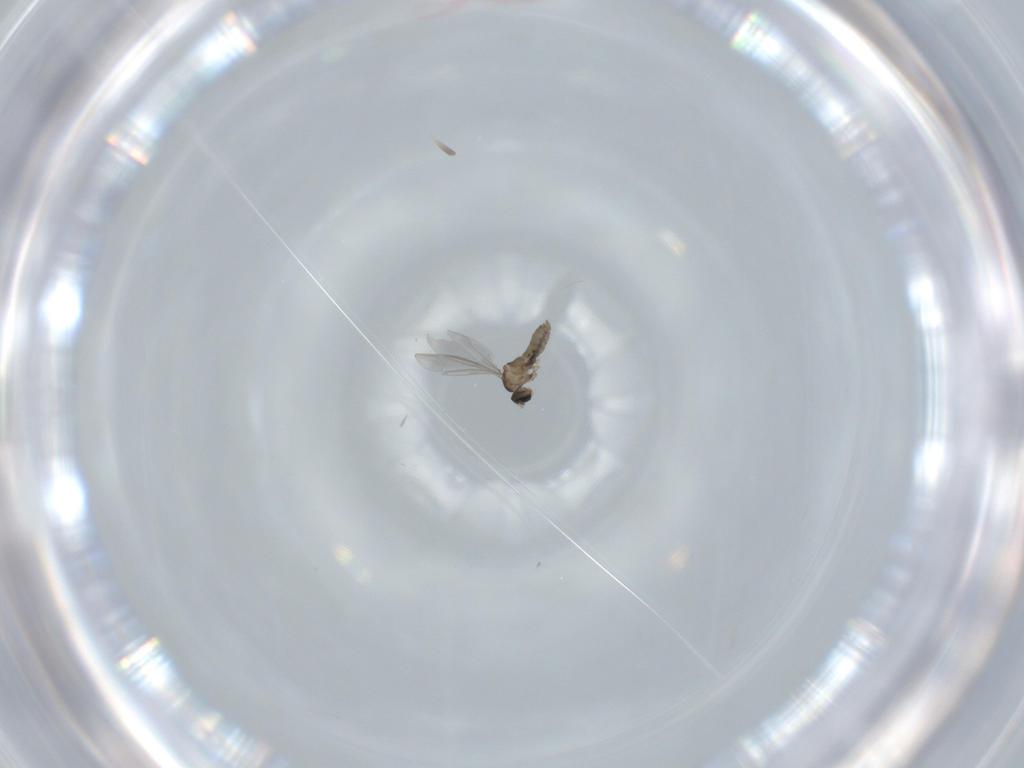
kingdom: Animalia
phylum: Arthropoda
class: Insecta
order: Diptera
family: Cecidomyiidae
